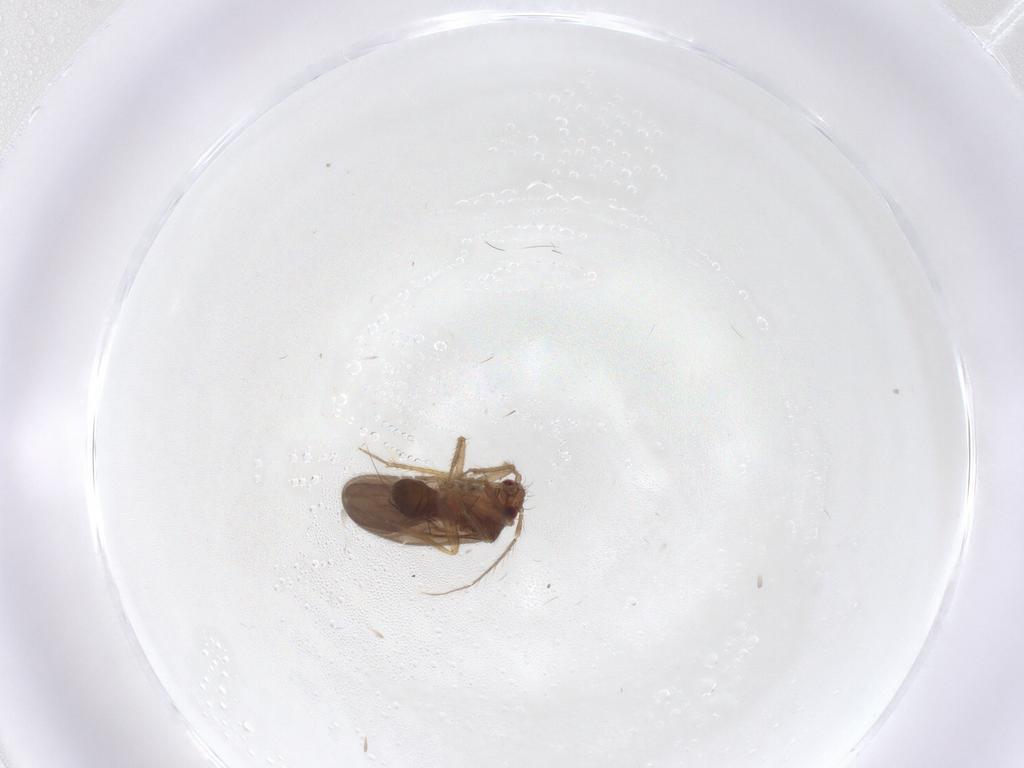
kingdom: Animalia
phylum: Arthropoda
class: Insecta
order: Hemiptera
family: Ceratocombidae
